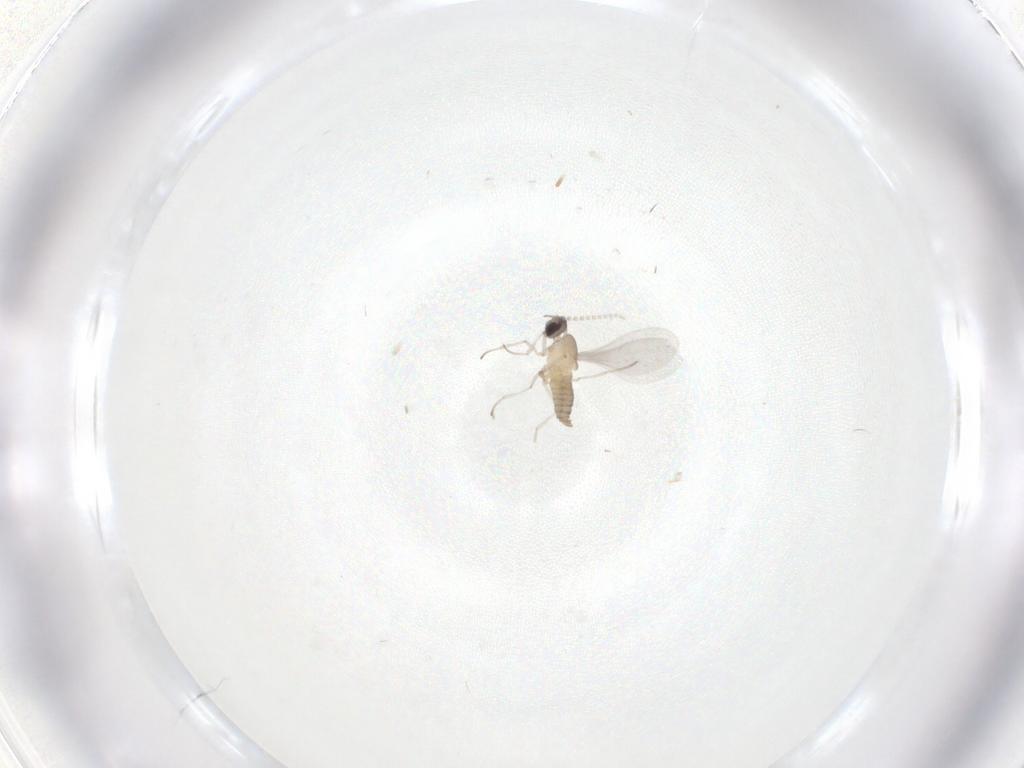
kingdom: Animalia
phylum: Arthropoda
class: Insecta
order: Diptera
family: Cecidomyiidae
